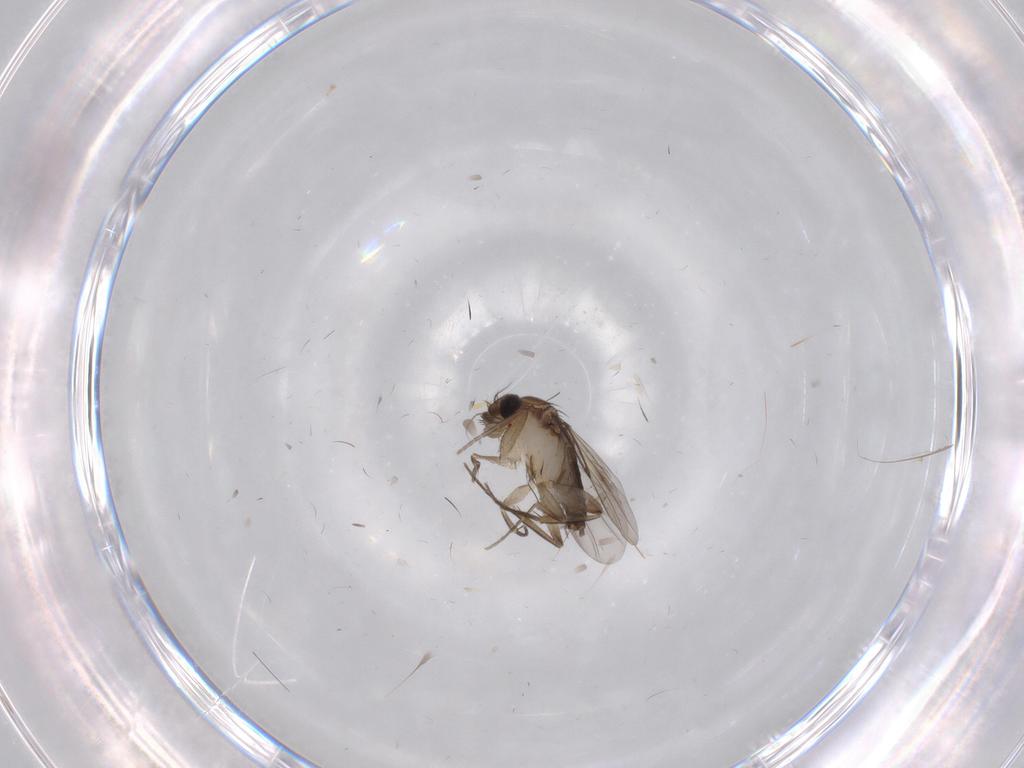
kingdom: Animalia
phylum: Arthropoda
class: Insecta
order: Diptera
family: Phoridae
